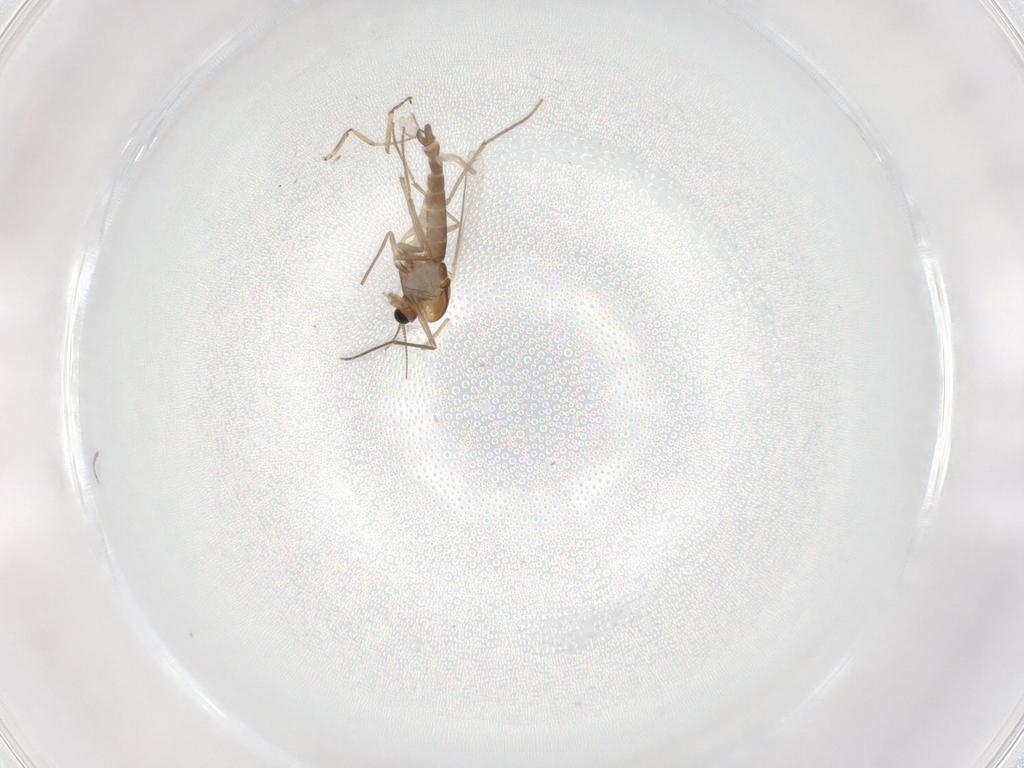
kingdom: Animalia
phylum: Arthropoda
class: Insecta
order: Diptera
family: Chironomidae
